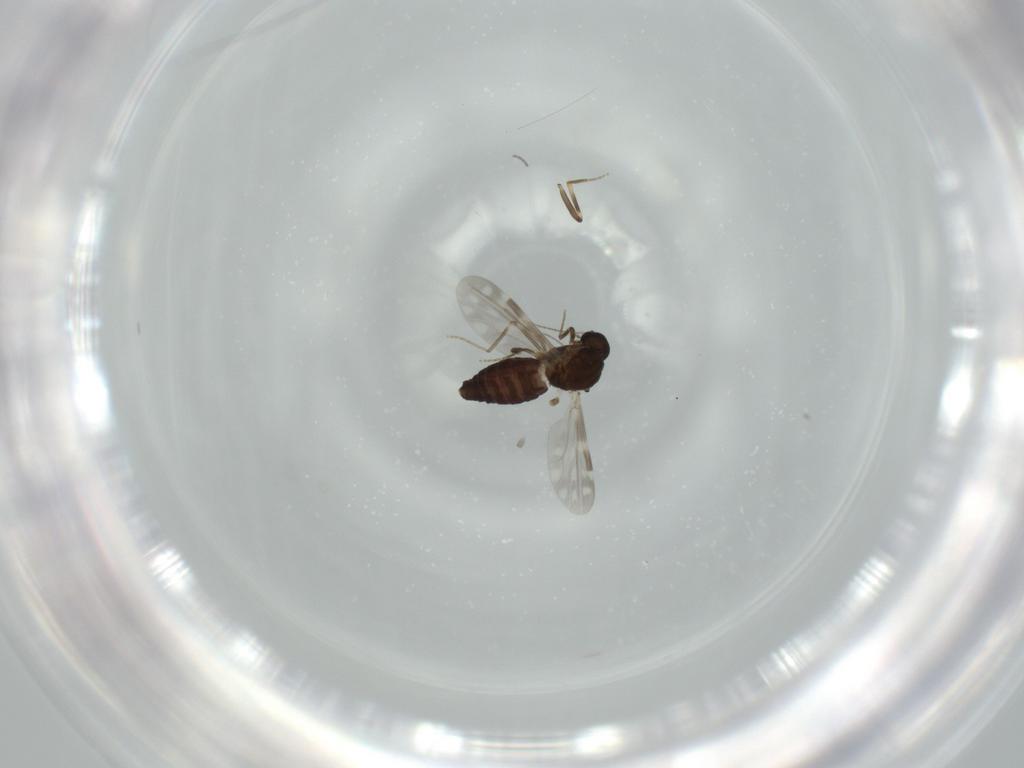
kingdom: Animalia
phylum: Arthropoda
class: Insecta
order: Diptera
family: Ceratopogonidae
